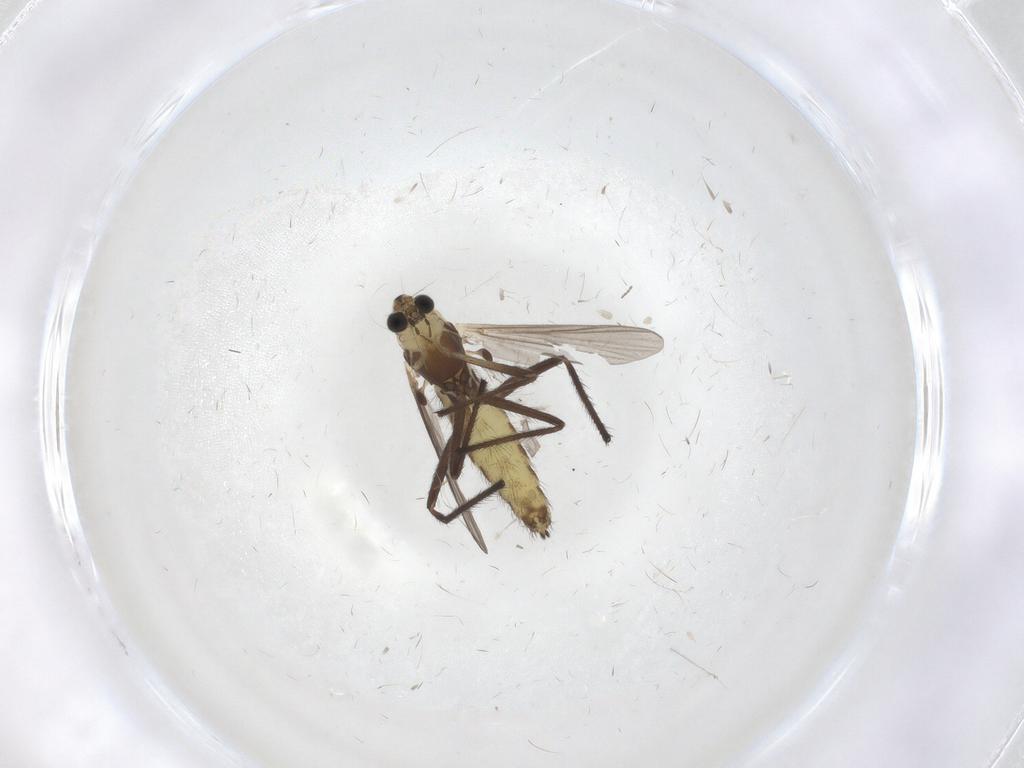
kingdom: Animalia
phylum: Arthropoda
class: Insecta
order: Diptera
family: Chironomidae
